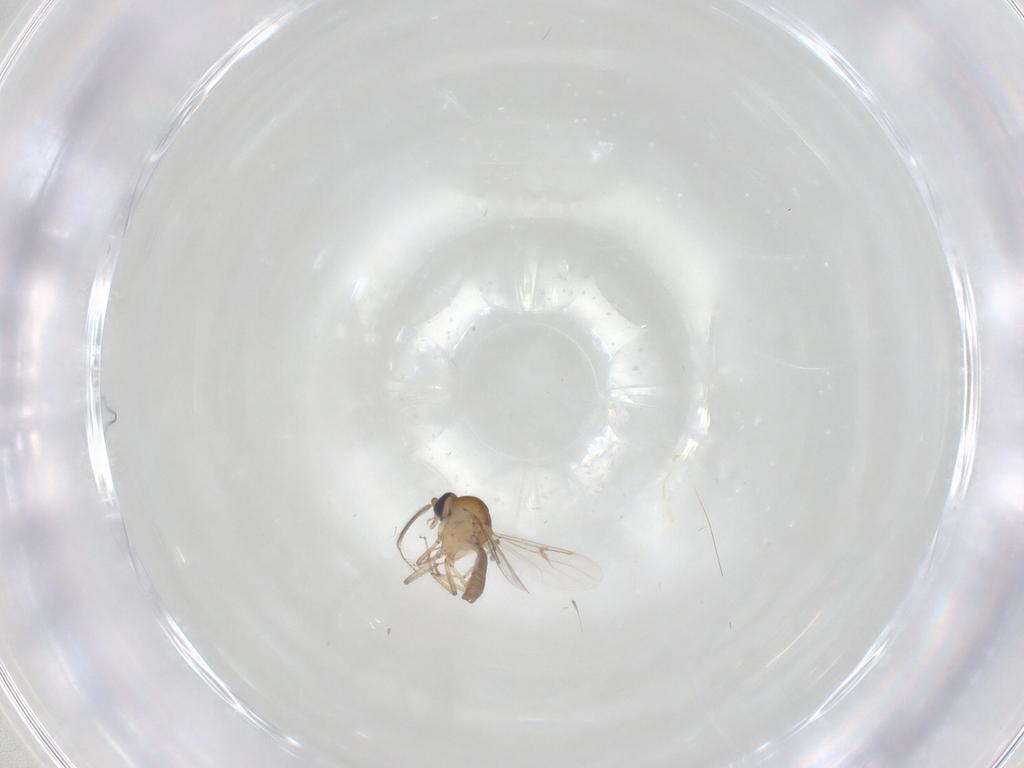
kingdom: Animalia
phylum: Arthropoda
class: Insecta
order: Diptera
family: Ceratopogonidae
